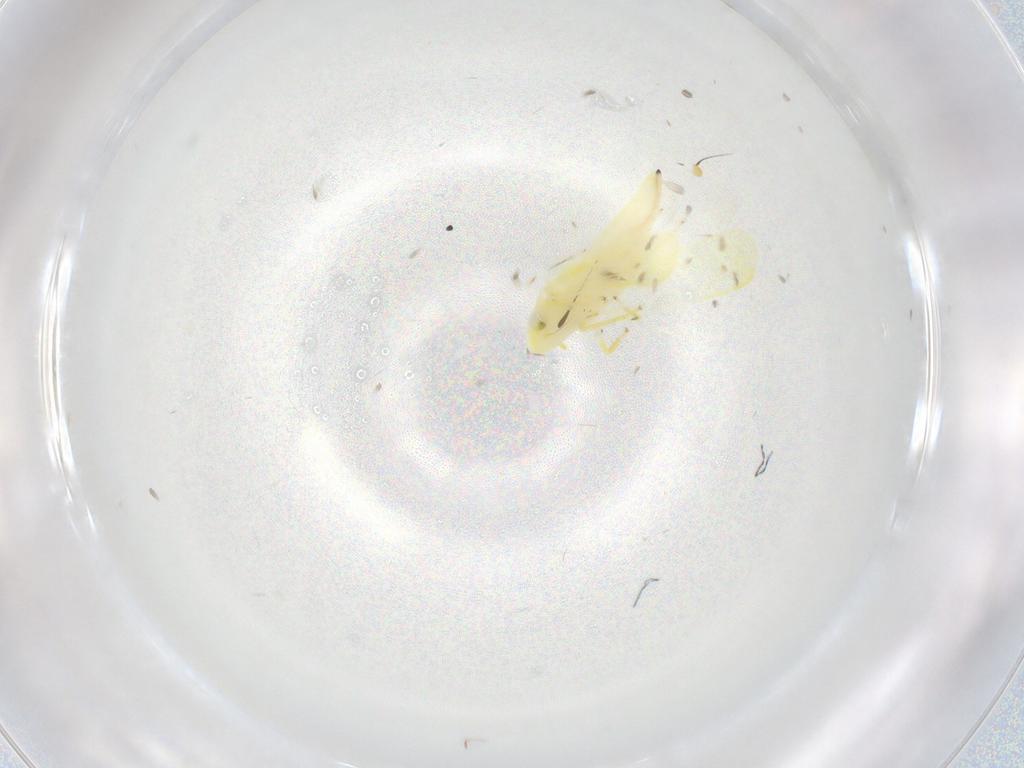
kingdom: Animalia
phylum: Arthropoda
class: Insecta
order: Hemiptera
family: Cicadellidae
